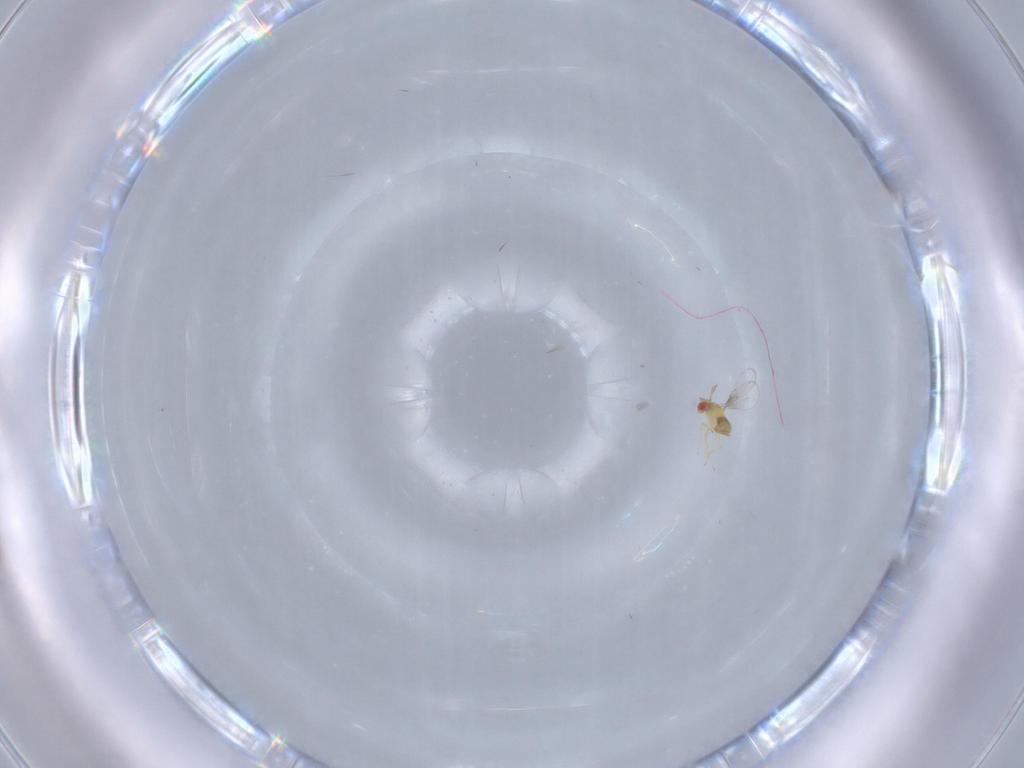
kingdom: Animalia
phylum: Arthropoda
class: Insecta
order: Hymenoptera
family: Trichogrammatidae
